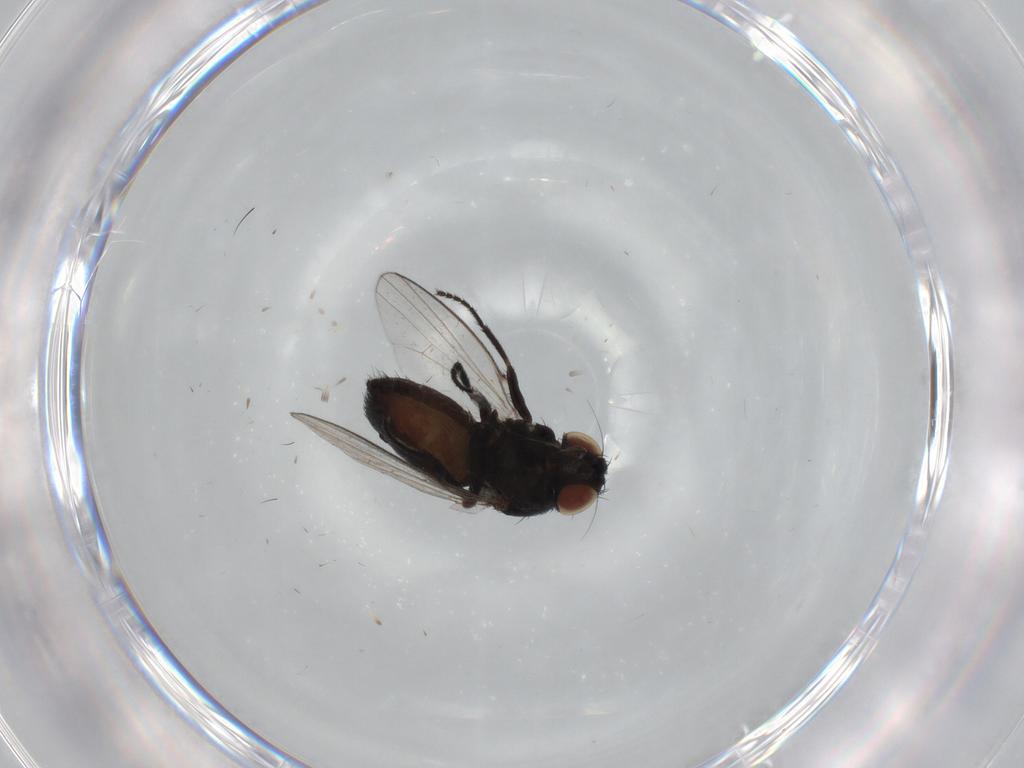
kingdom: Animalia
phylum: Arthropoda
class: Insecta
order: Diptera
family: Milichiidae
